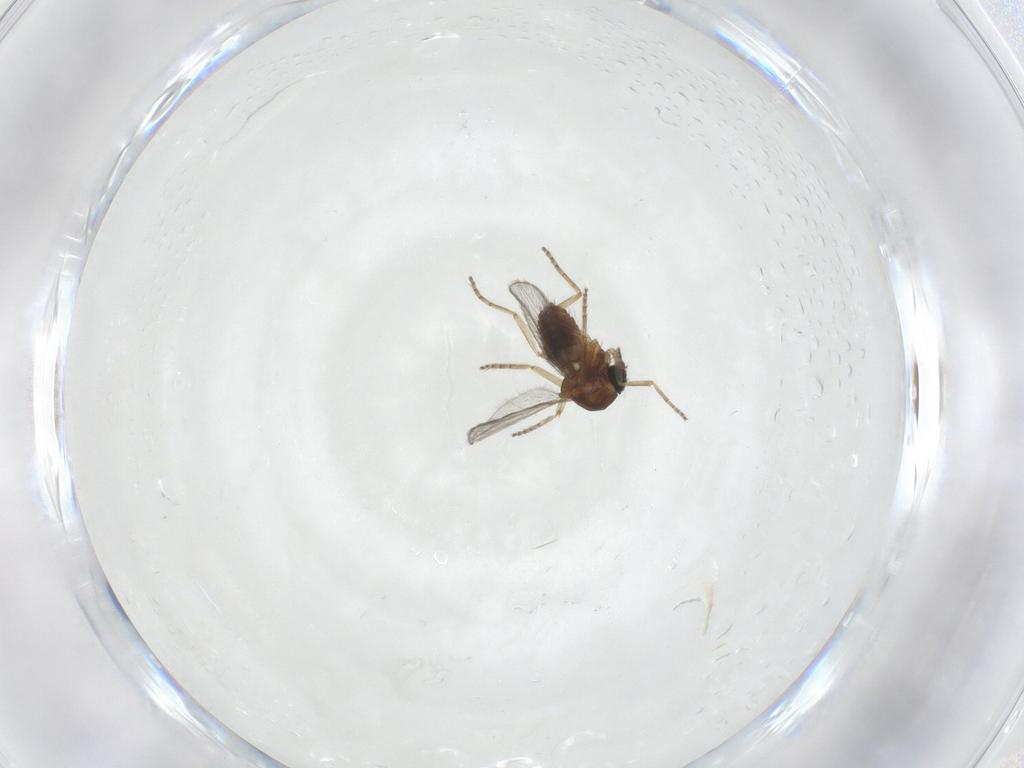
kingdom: Animalia
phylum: Arthropoda
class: Insecta
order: Diptera
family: Ceratopogonidae
